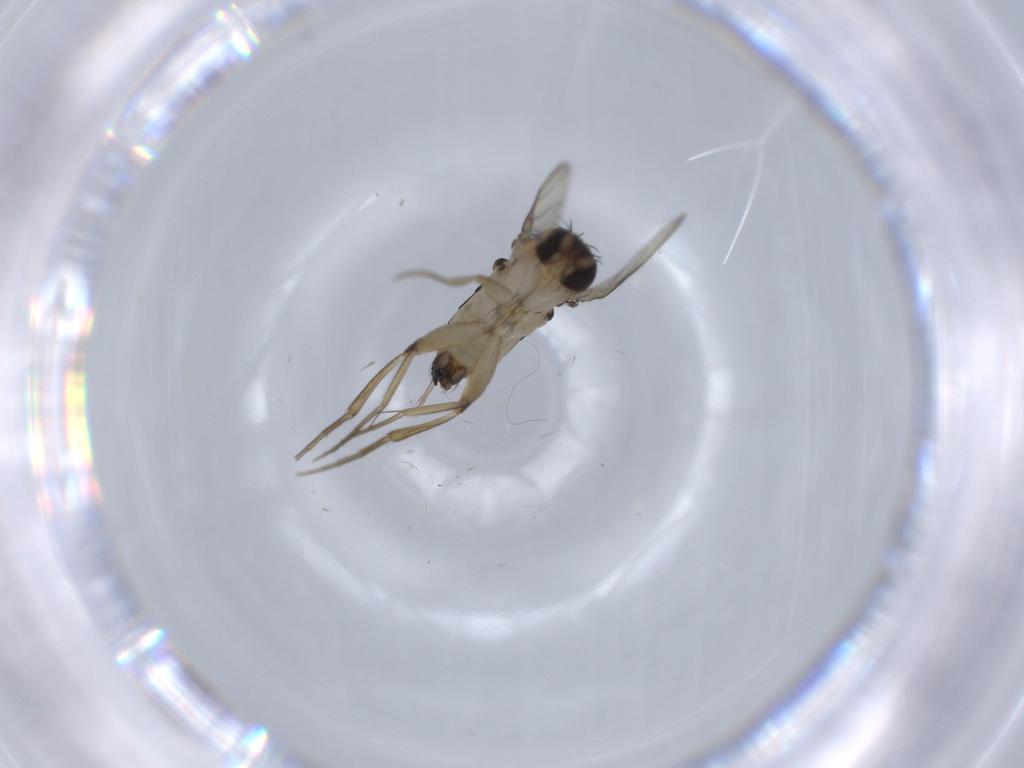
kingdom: Animalia
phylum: Arthropoda
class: Insecta
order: Diptera
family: Phoridae
